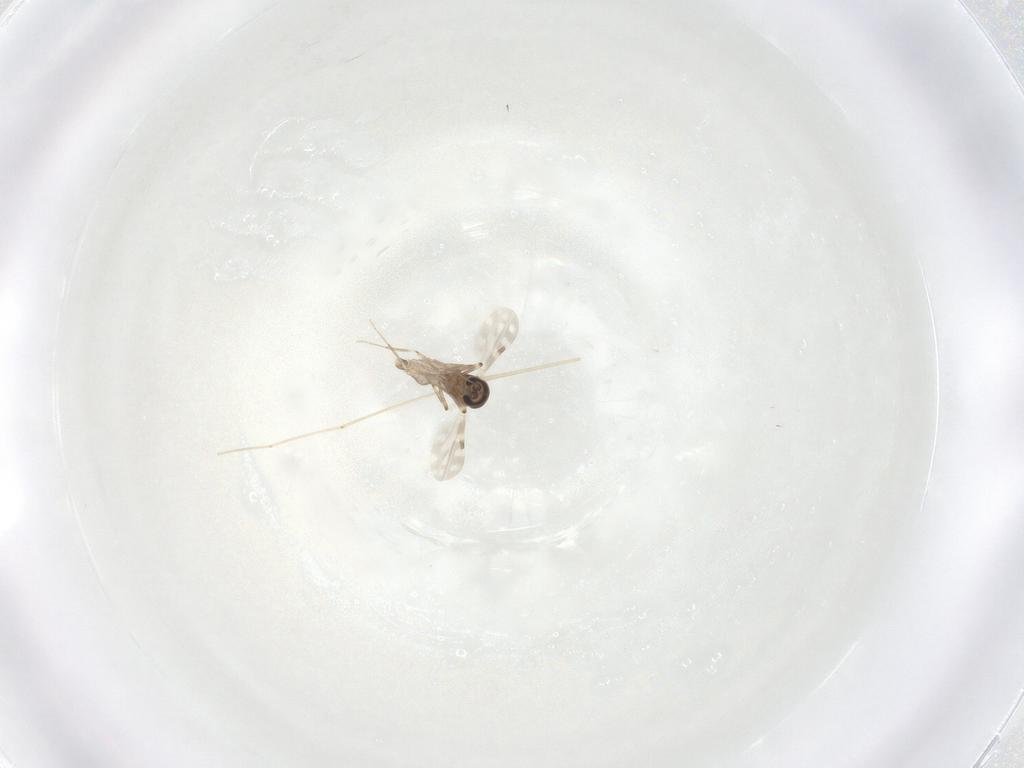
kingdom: Animalia
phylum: Arthropoda
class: Insecta
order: Diptera
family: Ceratopogonidae
